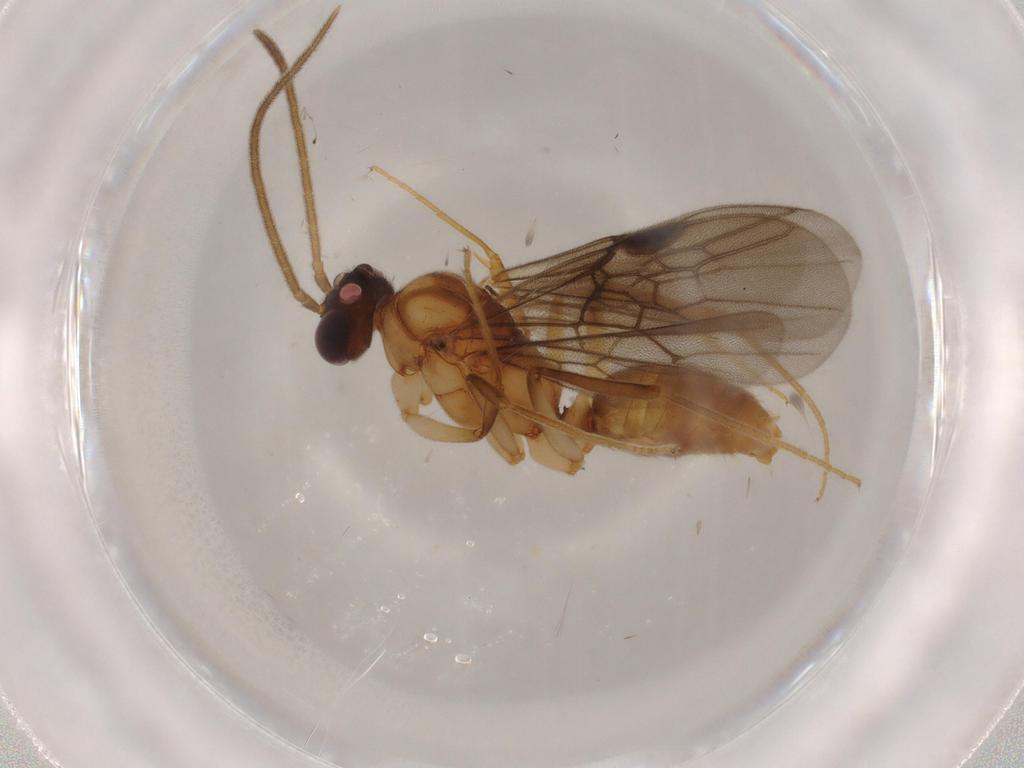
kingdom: Animalia
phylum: Arthropoda
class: Insecta
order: Hymenoptera
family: Formicidae
